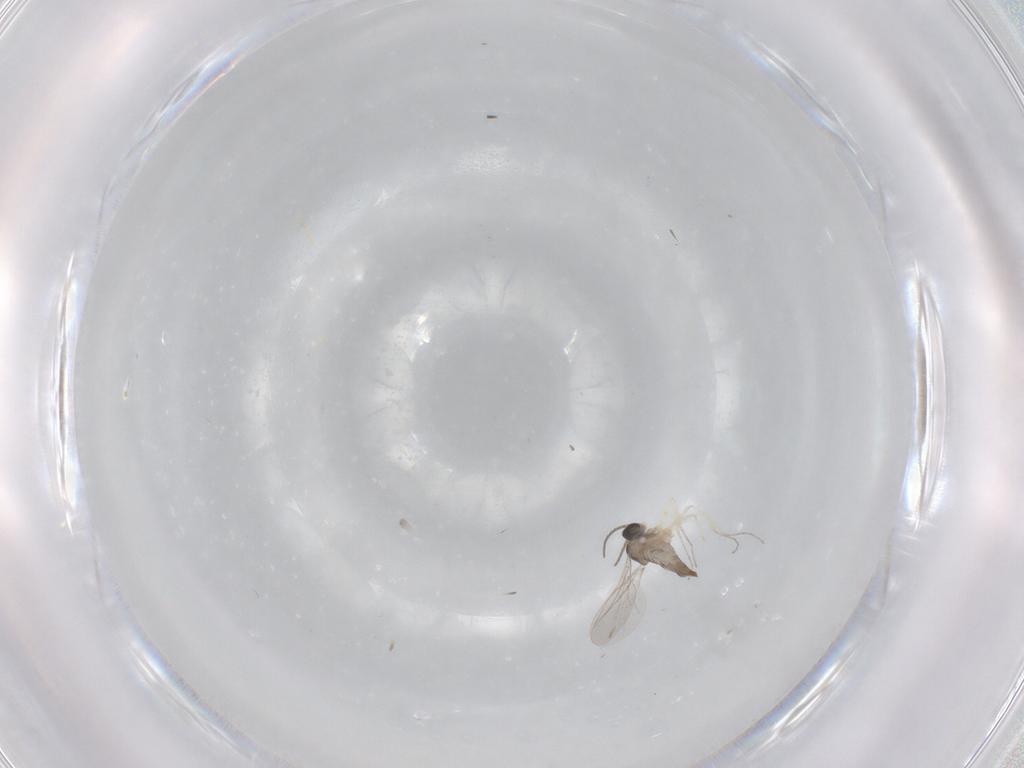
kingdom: Animalia
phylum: Arthropoda
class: Insecta
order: Diptera
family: Cecidomyiidae
